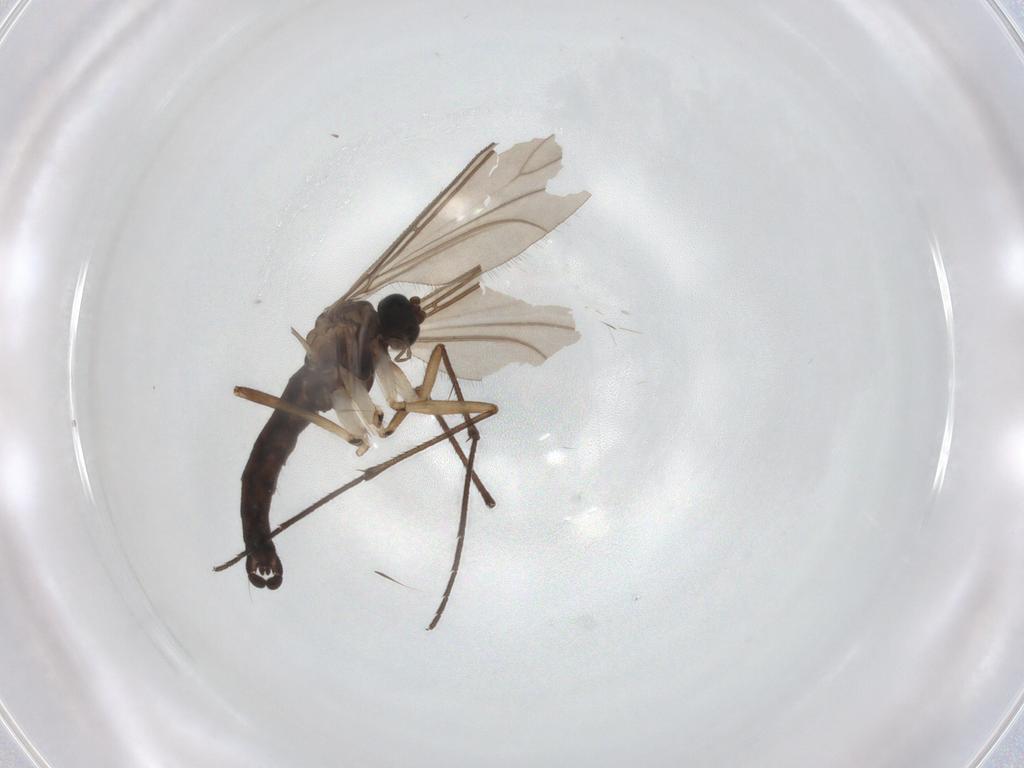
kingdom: Animalia
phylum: Arthropoda
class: Insecta
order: Diptera
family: Sciaridae
